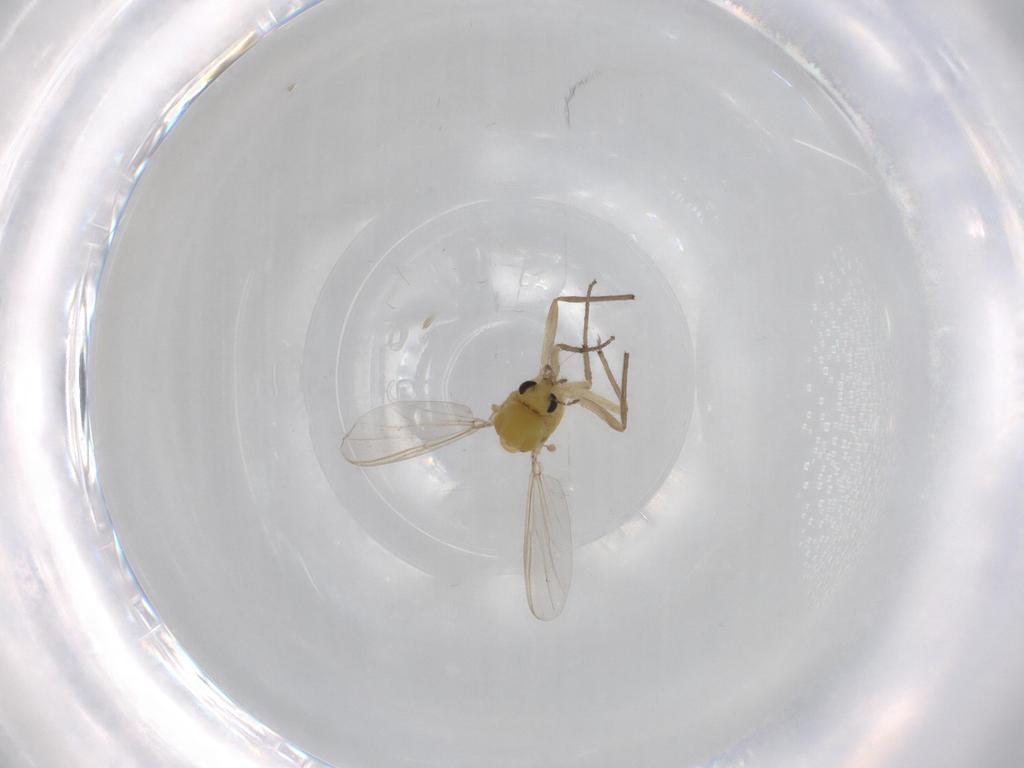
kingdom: Animalia
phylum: Arthropoda
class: Insecta
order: Diptera
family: Chironomidae
